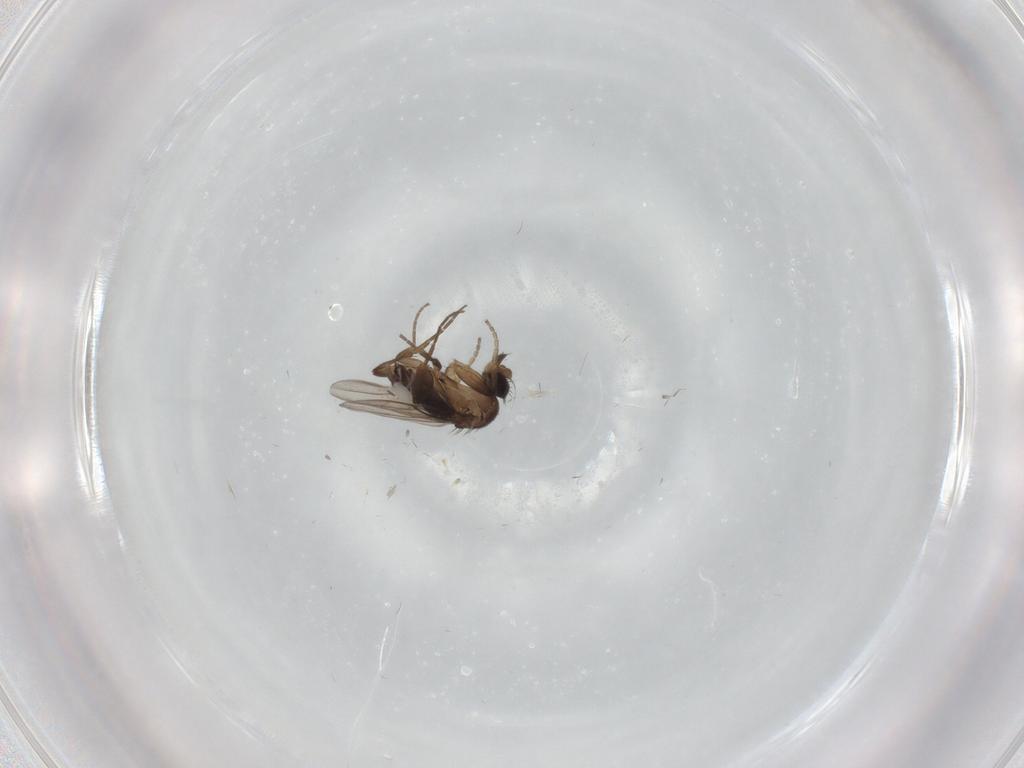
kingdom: Animalia
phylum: Arthropoda
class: Insecta
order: Diptera
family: Phoridae
